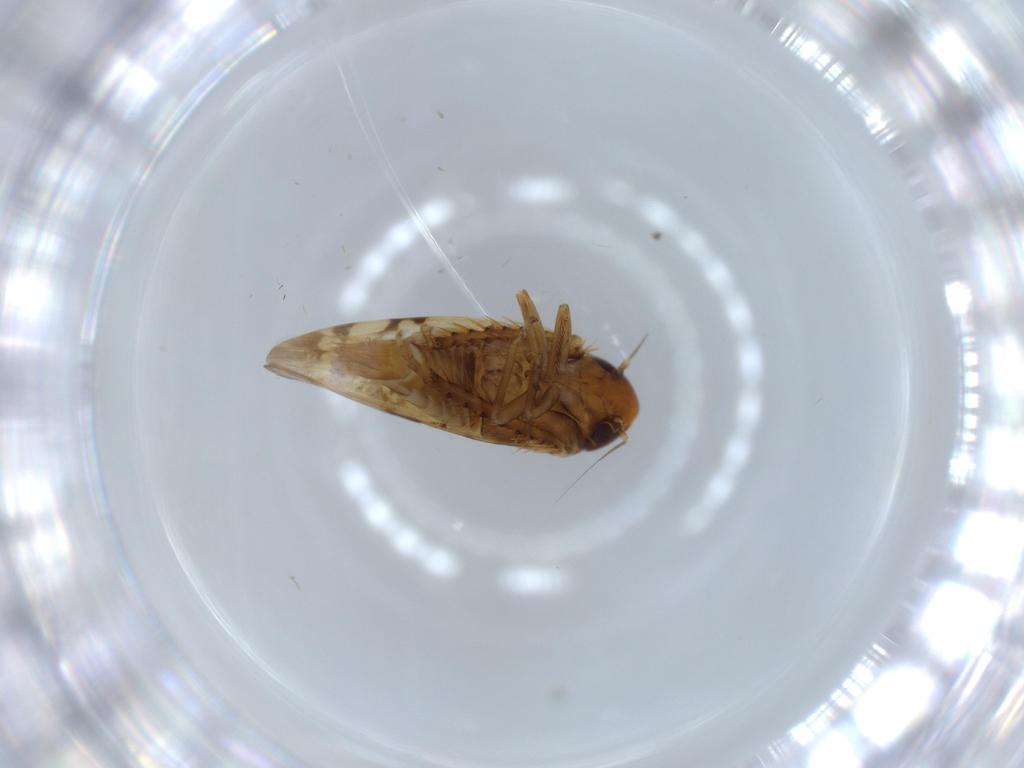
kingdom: Animalia
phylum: Arthropoda
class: Insecta
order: Hemiptera
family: Cicadellidae
